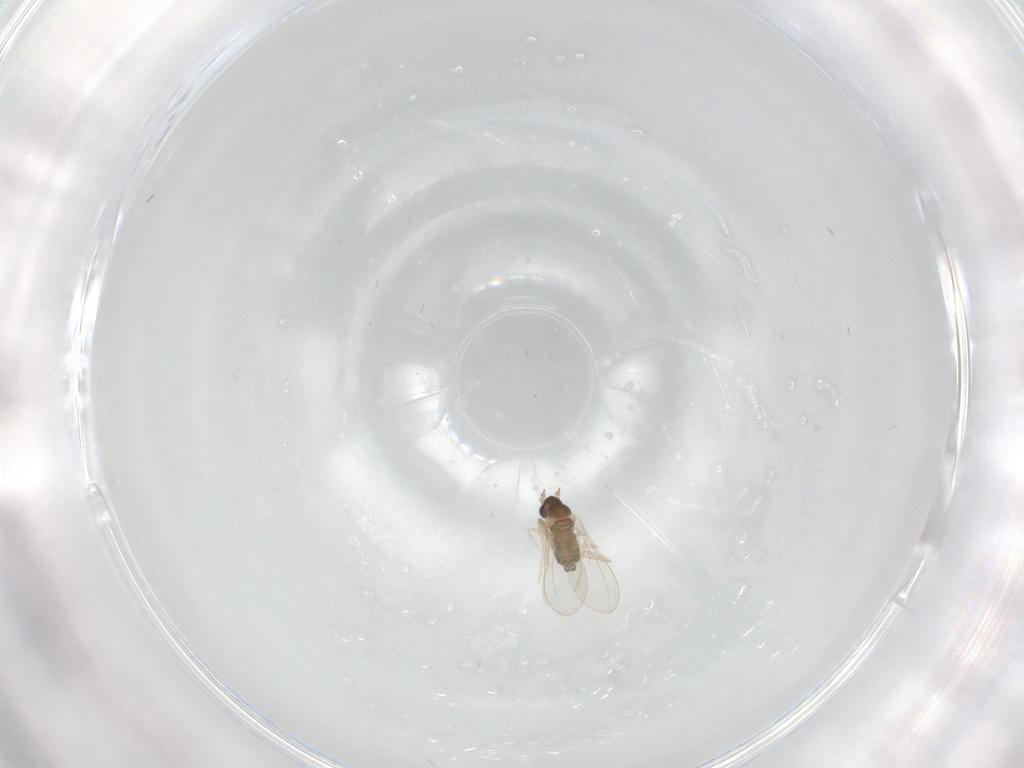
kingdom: Animalia
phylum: Arthropoda
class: Insecta
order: Diptera
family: Cecidomyiidae
